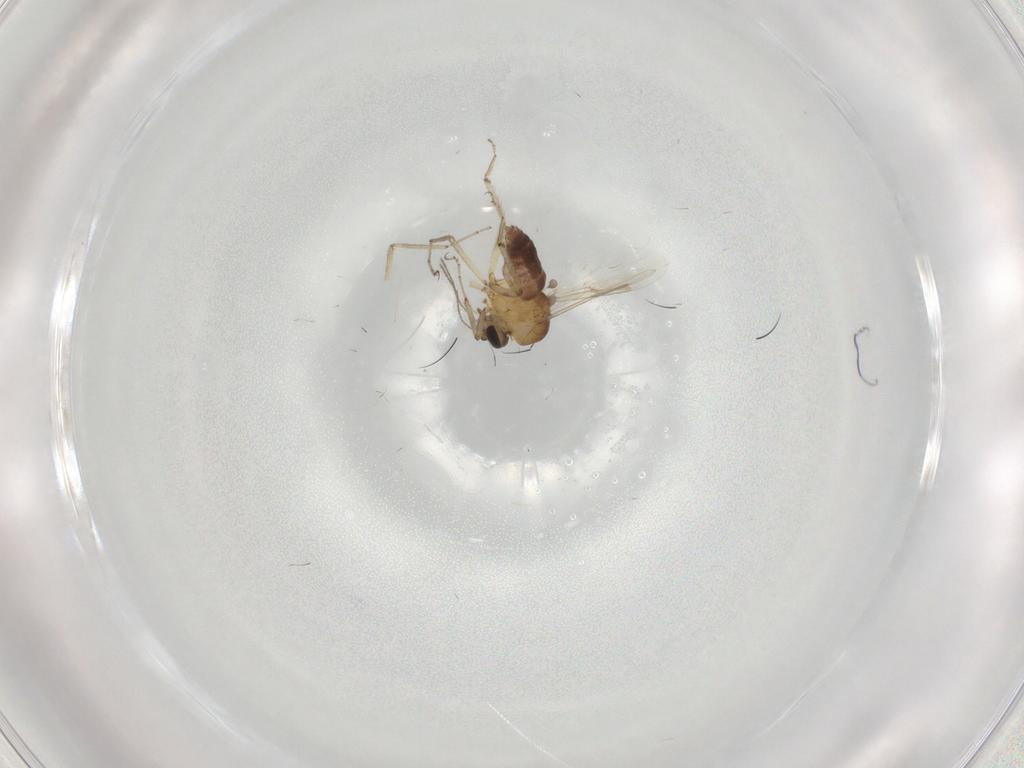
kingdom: Animalia
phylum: Arthropoda
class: Insecta
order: Diptera
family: Ceratopogonidae
